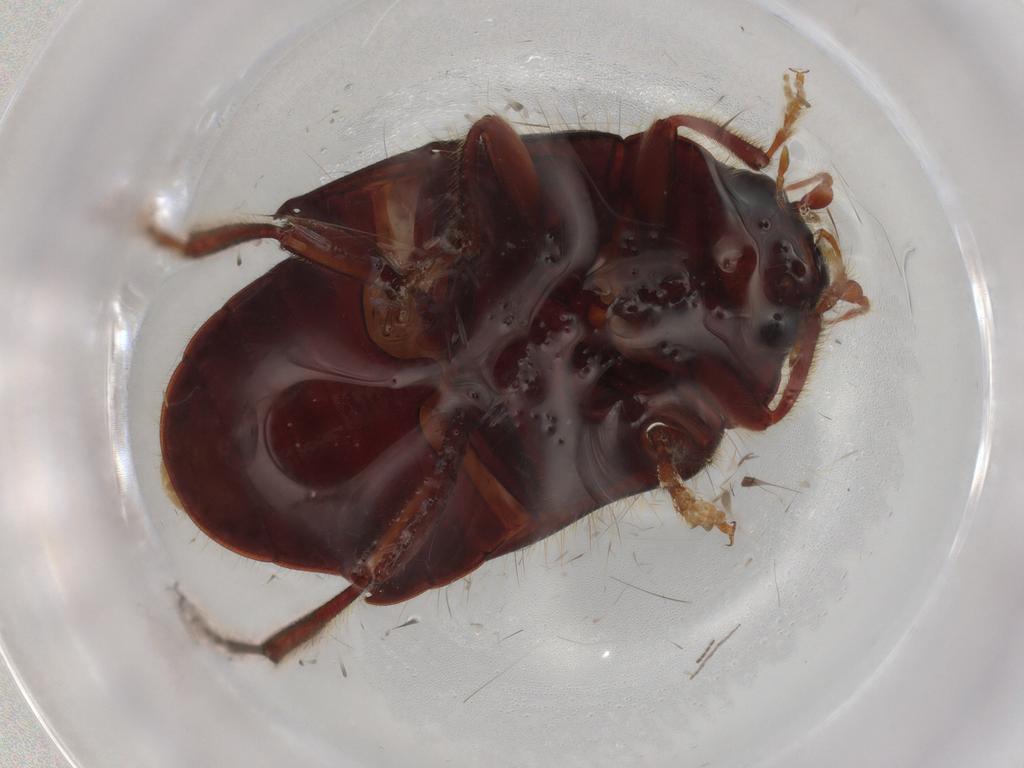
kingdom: Animalia
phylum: Arthropoda
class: Insecta
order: Coleoptera
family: Artematopodidae
